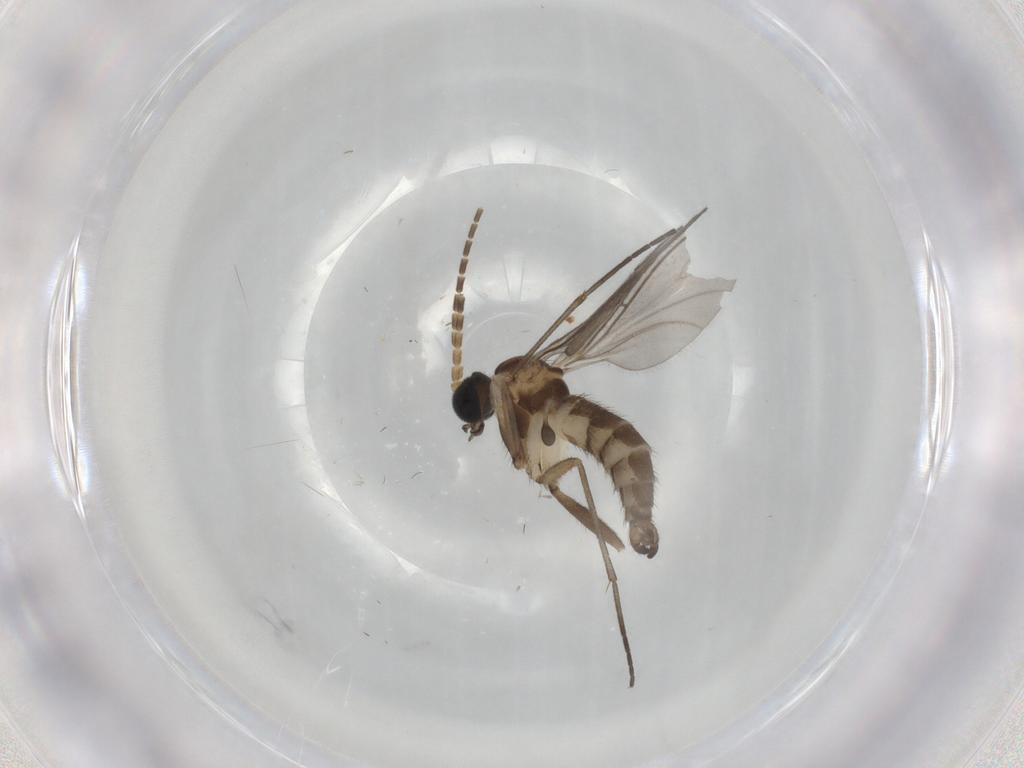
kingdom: Animalia
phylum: Arthropoda
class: Insecta
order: Diptera
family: Sciaridae
